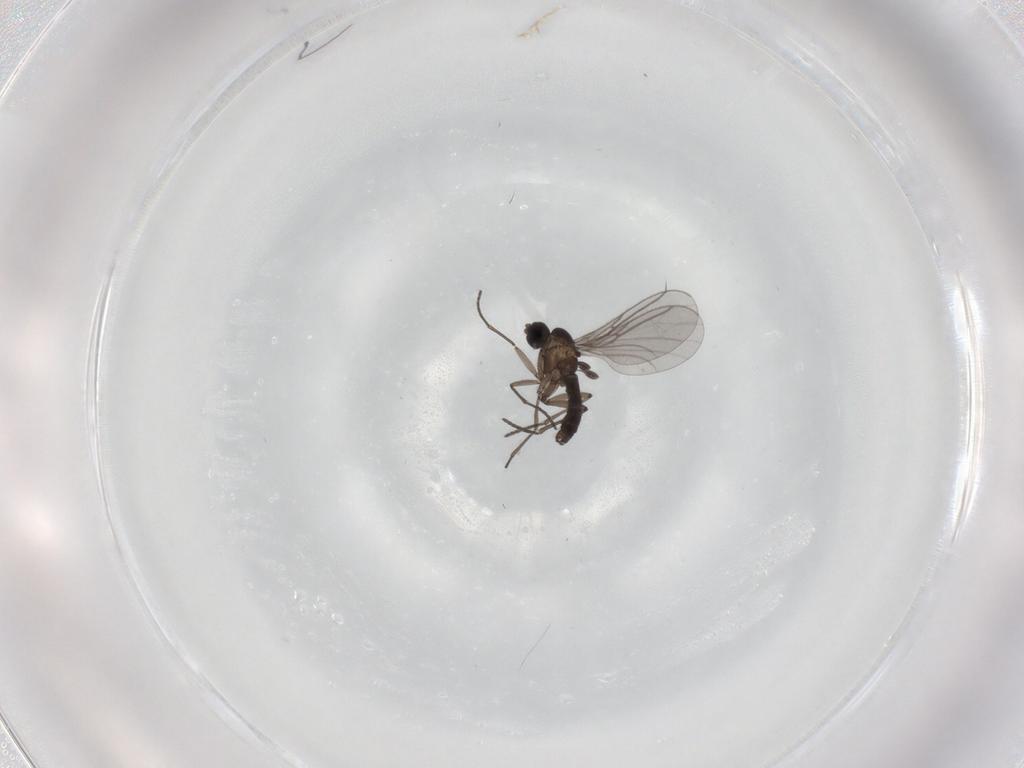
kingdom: Animalia
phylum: Arthropoda
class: Insecta
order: Diptera
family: Sciaridae
